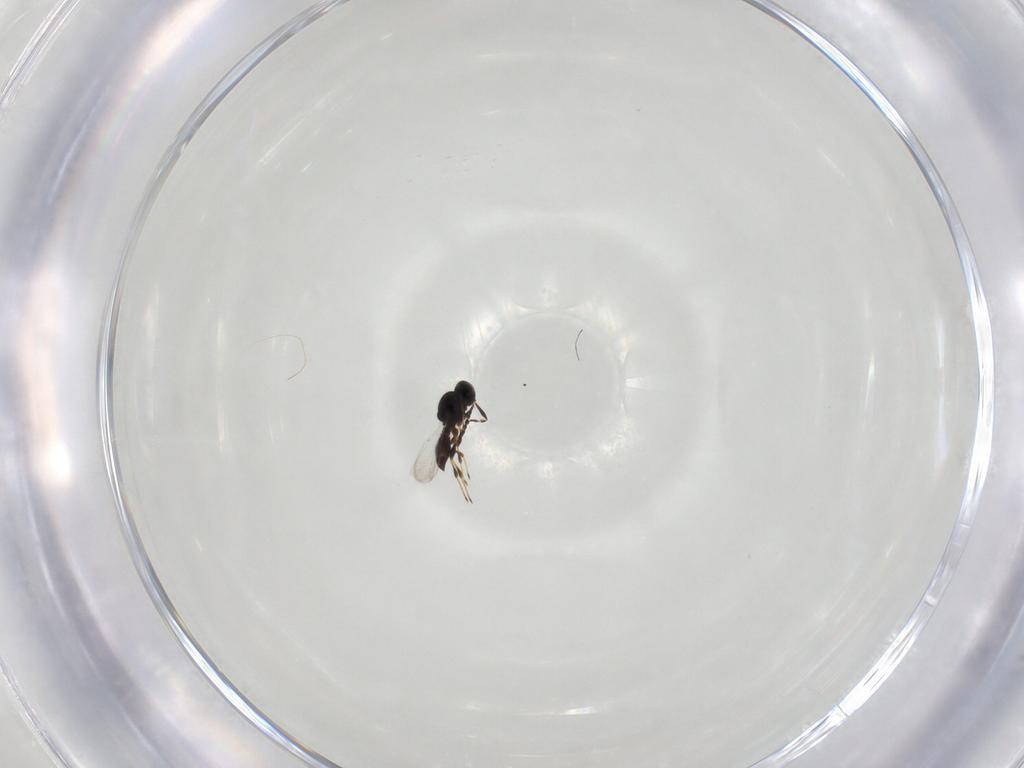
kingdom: Animalia
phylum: Arthropoda
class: Insecta
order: Hymenoptera
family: Platygastridae
